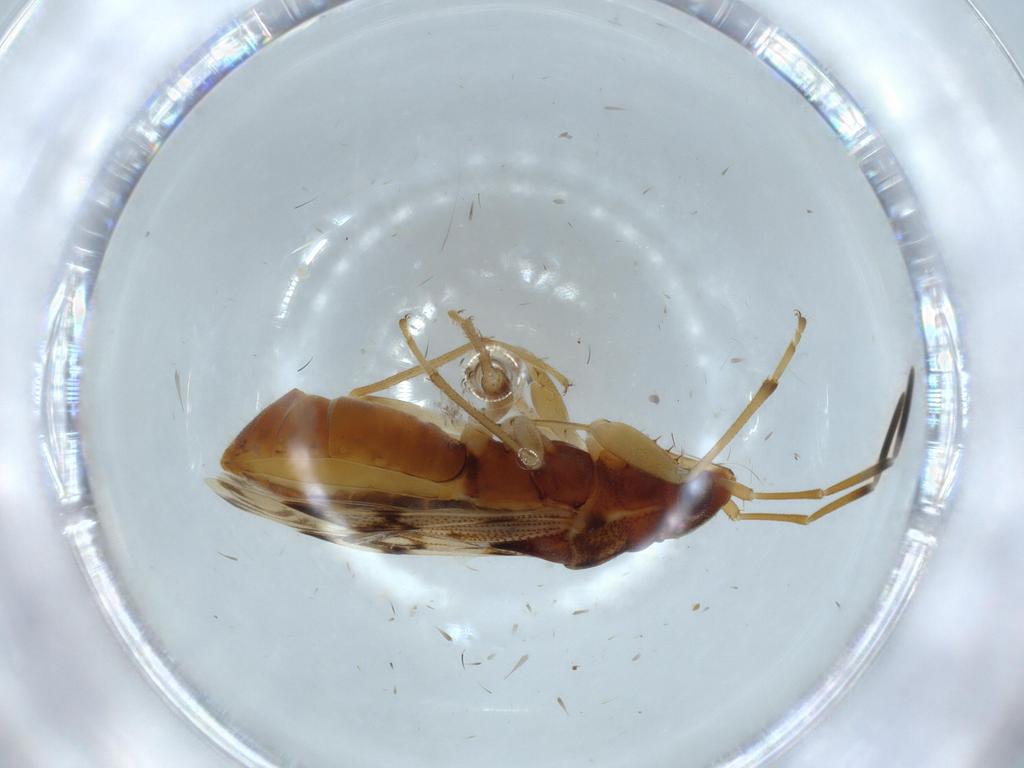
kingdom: Animalia
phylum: Arthropoda
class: Insecta
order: Hemiptera
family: Rhyparochromidae
